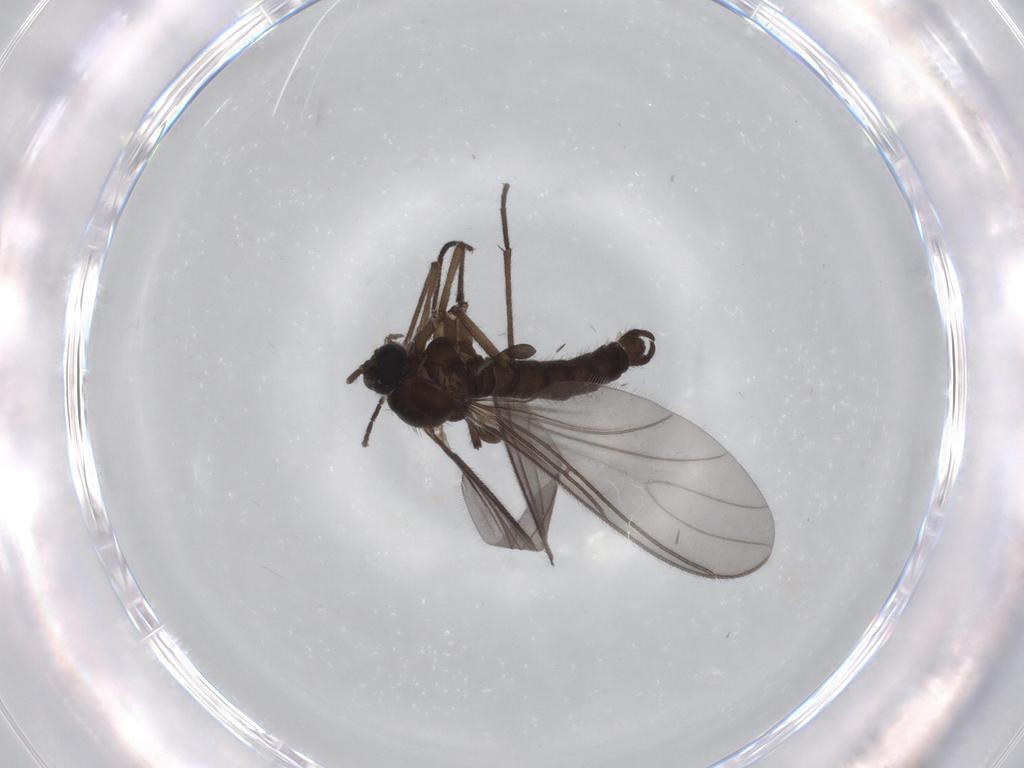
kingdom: Animalia
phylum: Arthropoda
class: Insecta
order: Diptera
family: Sciaridae
